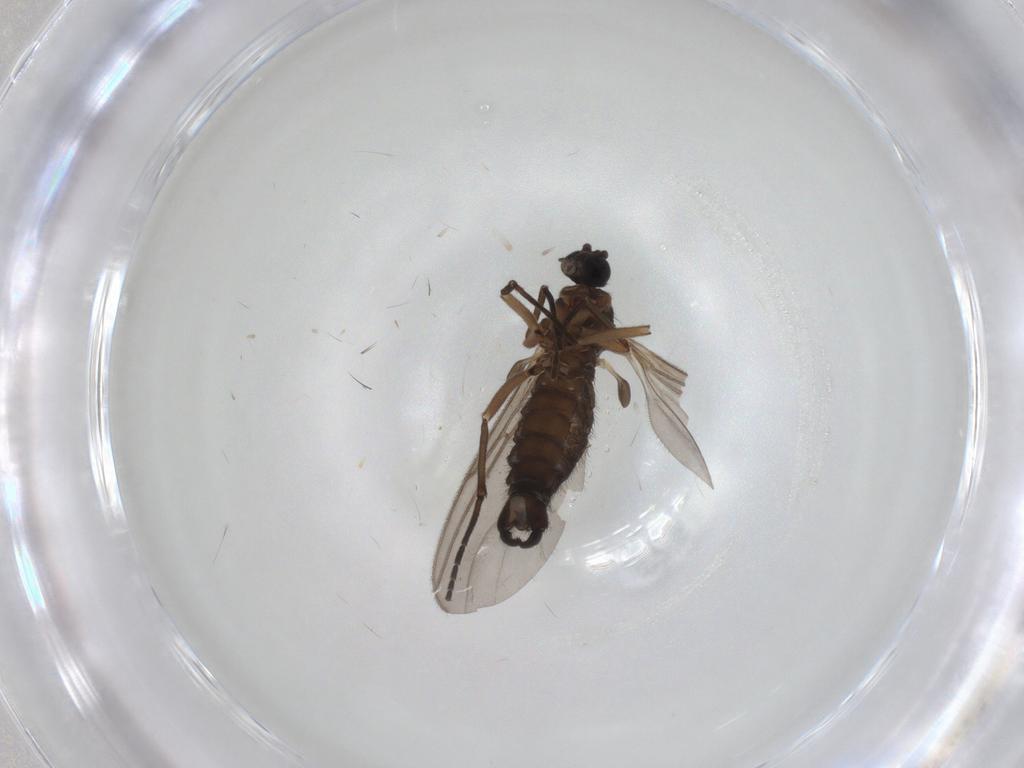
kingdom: Animalia
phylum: Arthropoda
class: Insecta
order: Diptera
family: Sciaridae
